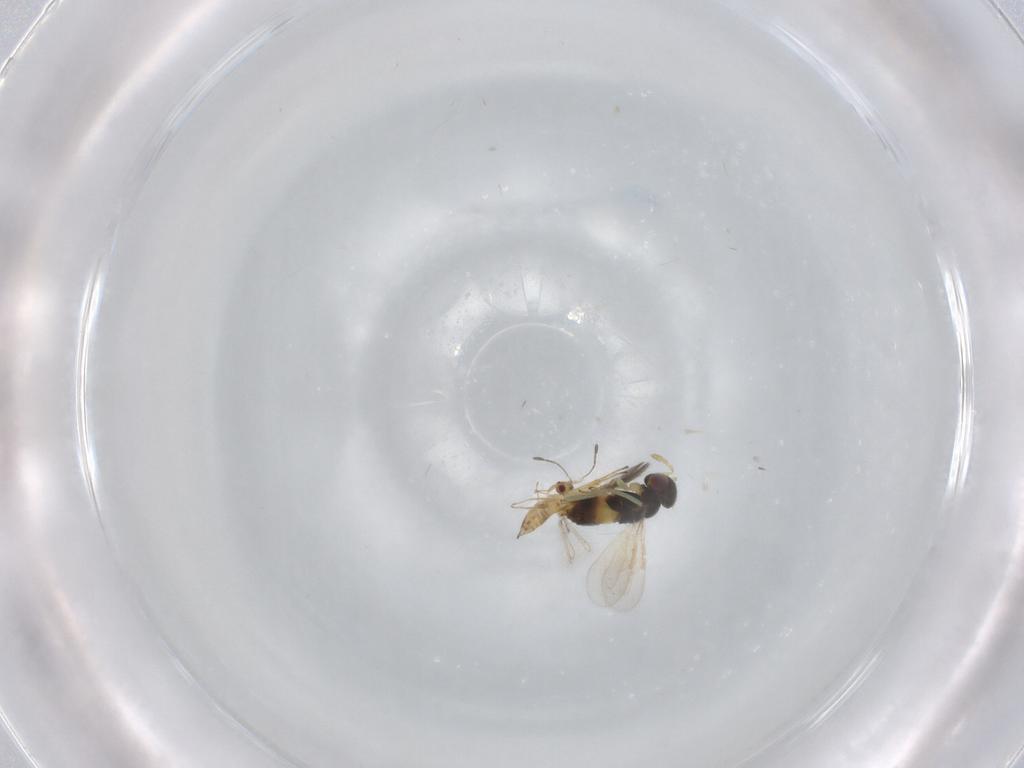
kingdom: Animalia
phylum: Arthropoda
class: Insecta
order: Hymenoptera
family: Aphelinidae
